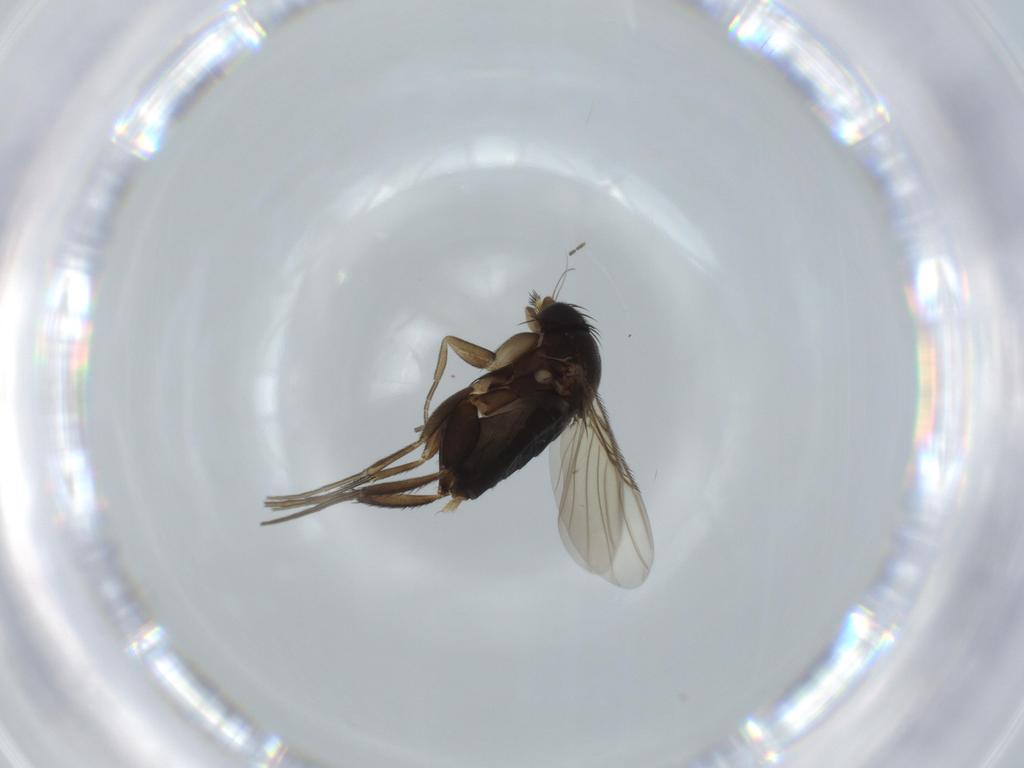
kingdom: Animalia
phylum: Arthropoda
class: Insecta
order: Diptera
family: Phoridae
